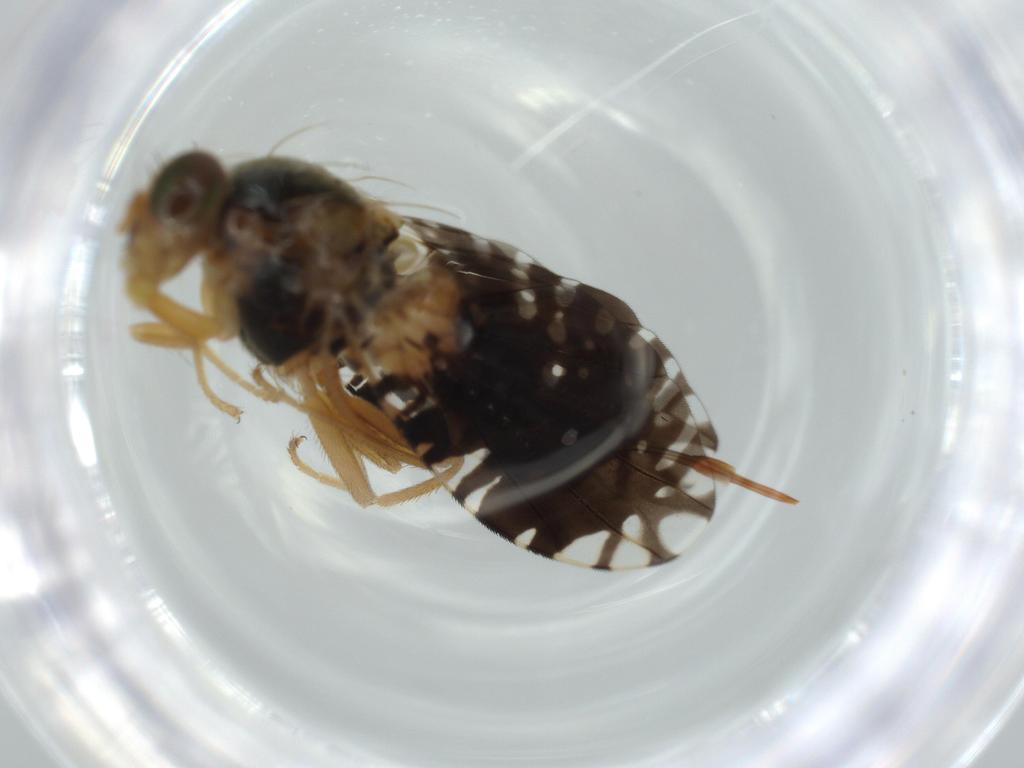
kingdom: Animalia
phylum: Arthropoda
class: Insecta
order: Diptera
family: Tephritidae
